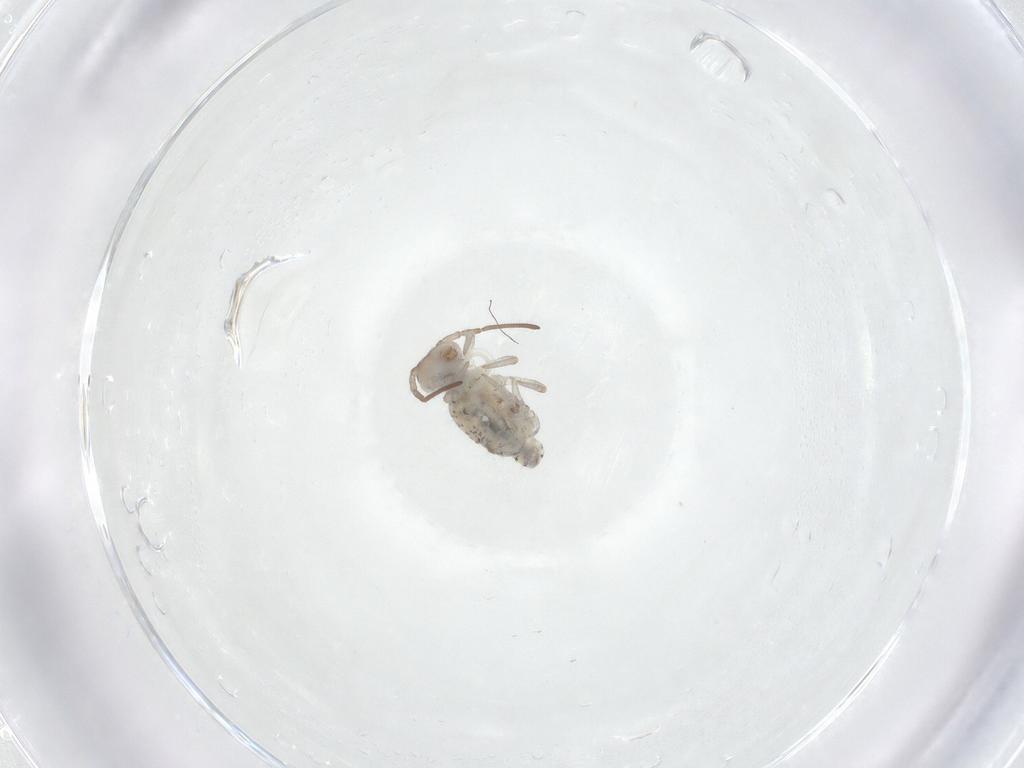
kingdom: Animalia
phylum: Arthropoda
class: Collembola
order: Symphypleona
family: Bourletiellidae
